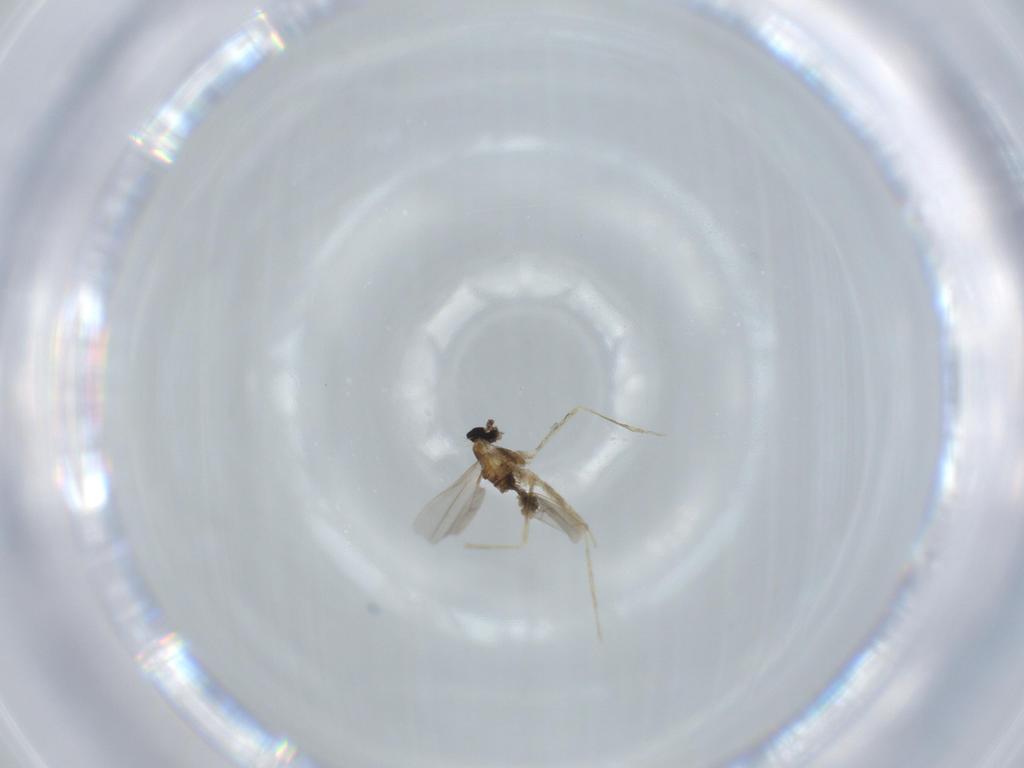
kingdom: Animalia
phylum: Arthropoda
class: Insecta
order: Diptera
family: Cecidomyiidae
